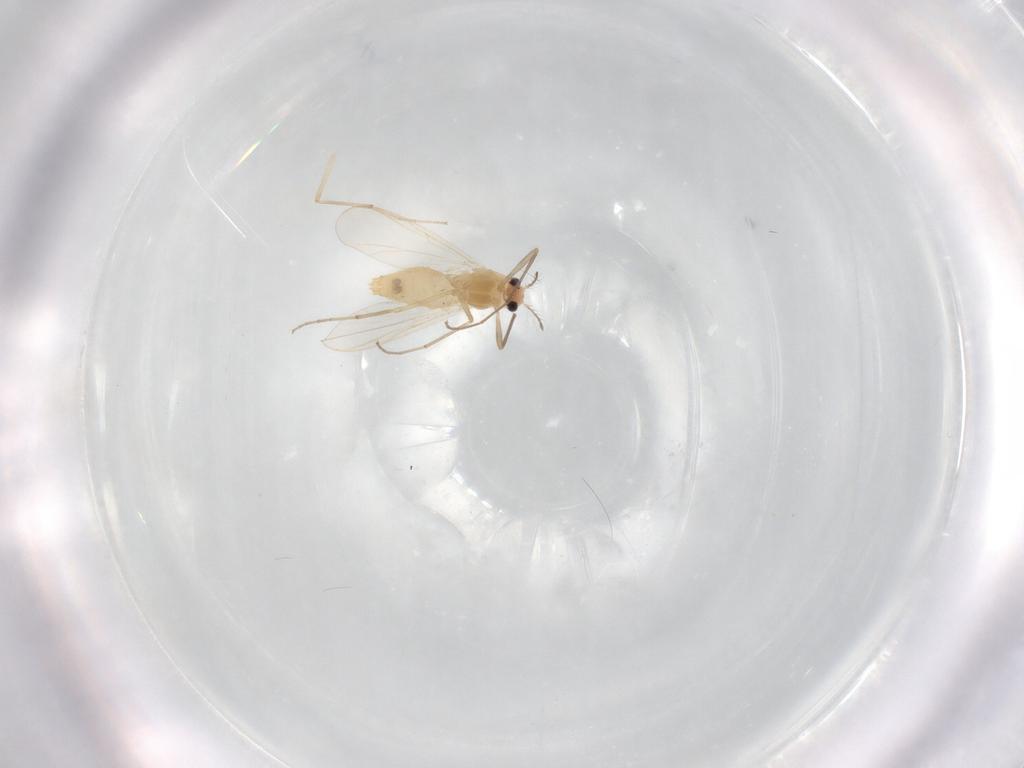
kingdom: Animalia
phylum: Arthropoda
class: Insecta
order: Diptera
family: Chironomidae
